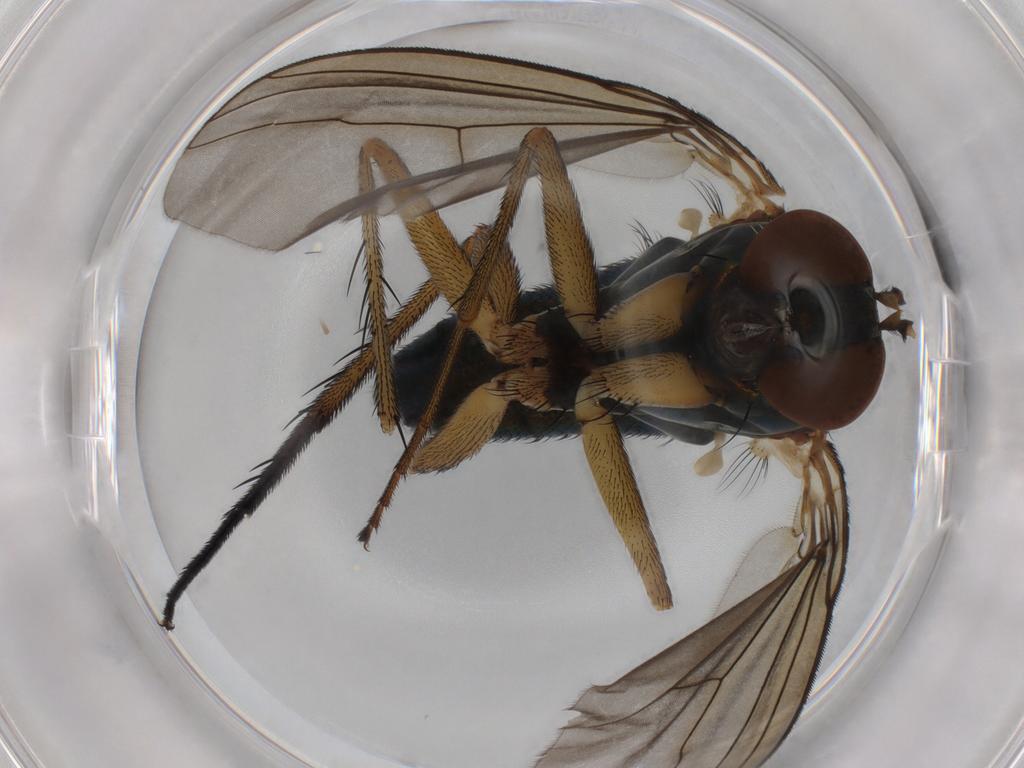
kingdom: Animalia
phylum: Arthropoda
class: Insecta
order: Diptera
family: Dolichopodidae
